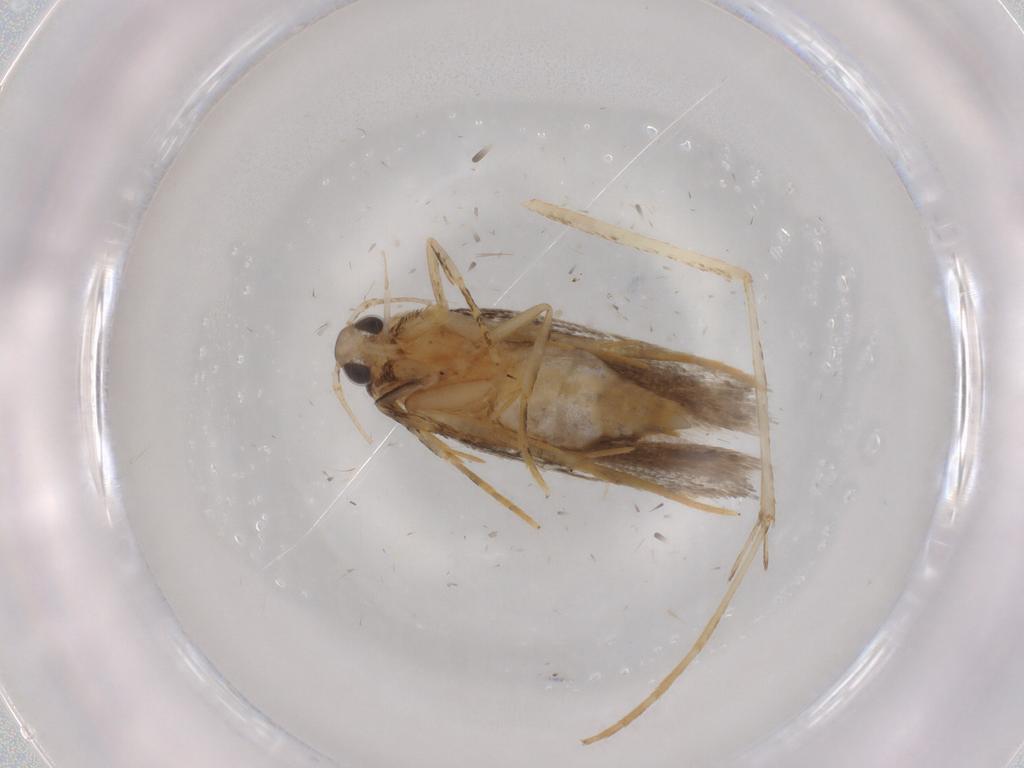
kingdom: Animalia
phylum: Arthropoda
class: Insecta
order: Lepidoptera
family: Autostichidae
